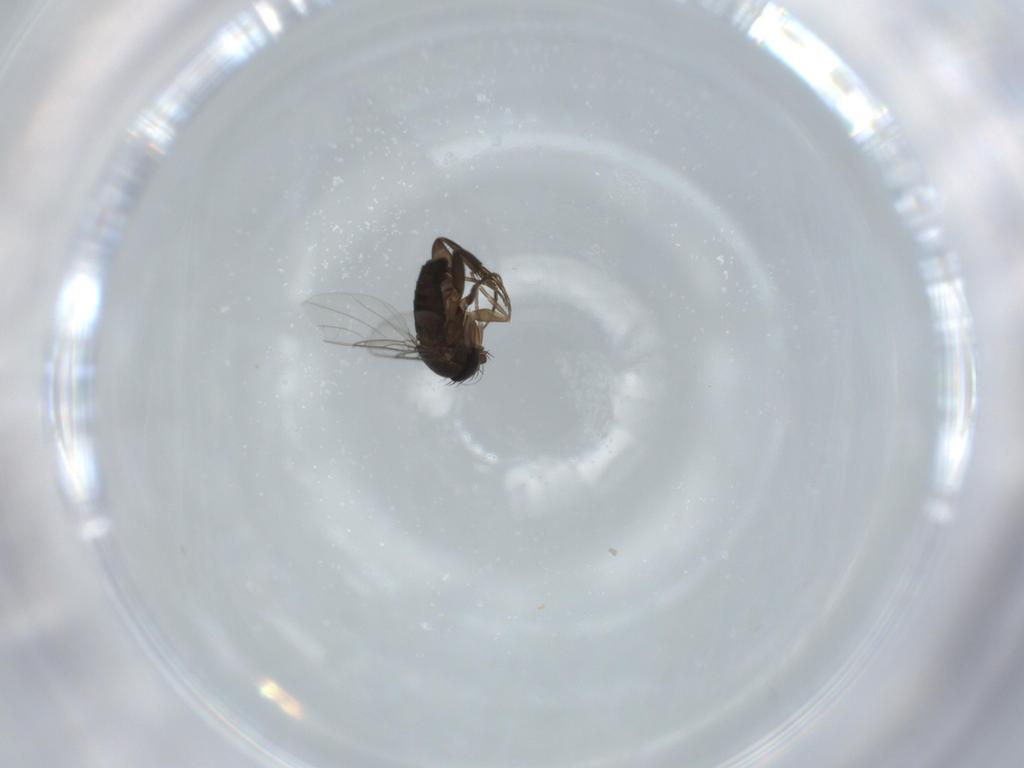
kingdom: Animalia
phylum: Arthropoda
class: Insecta
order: Diptera
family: Phoridae
